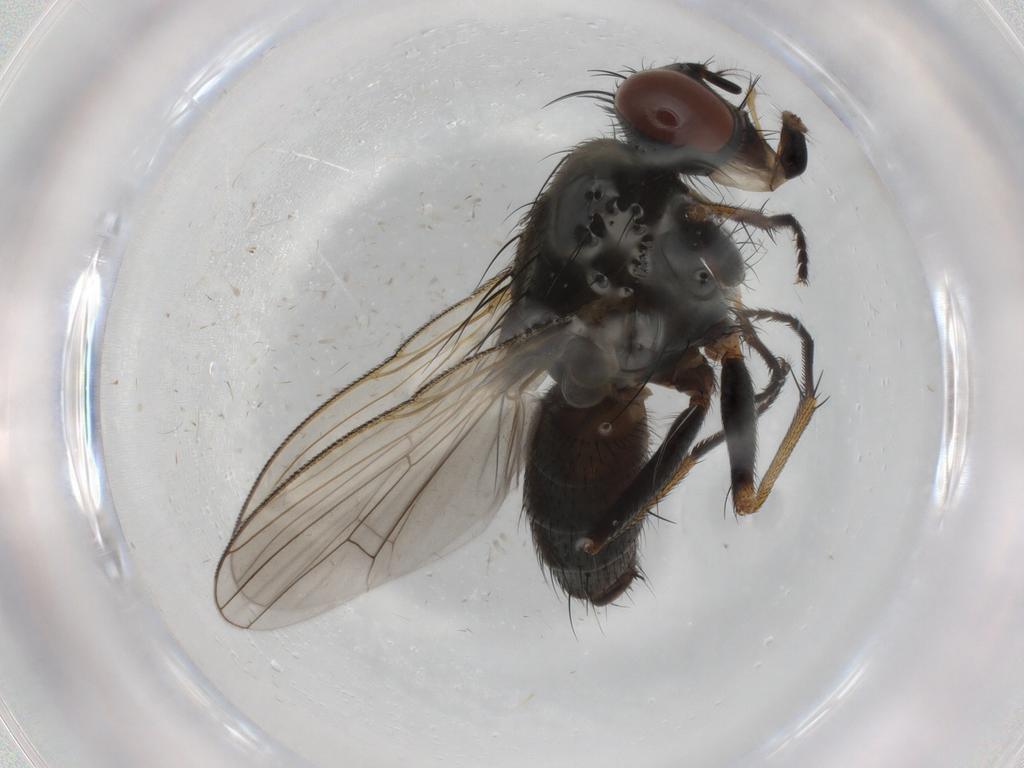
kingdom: Animalia
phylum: Arthropoda
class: Insecta
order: Diptera
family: Muscidae
